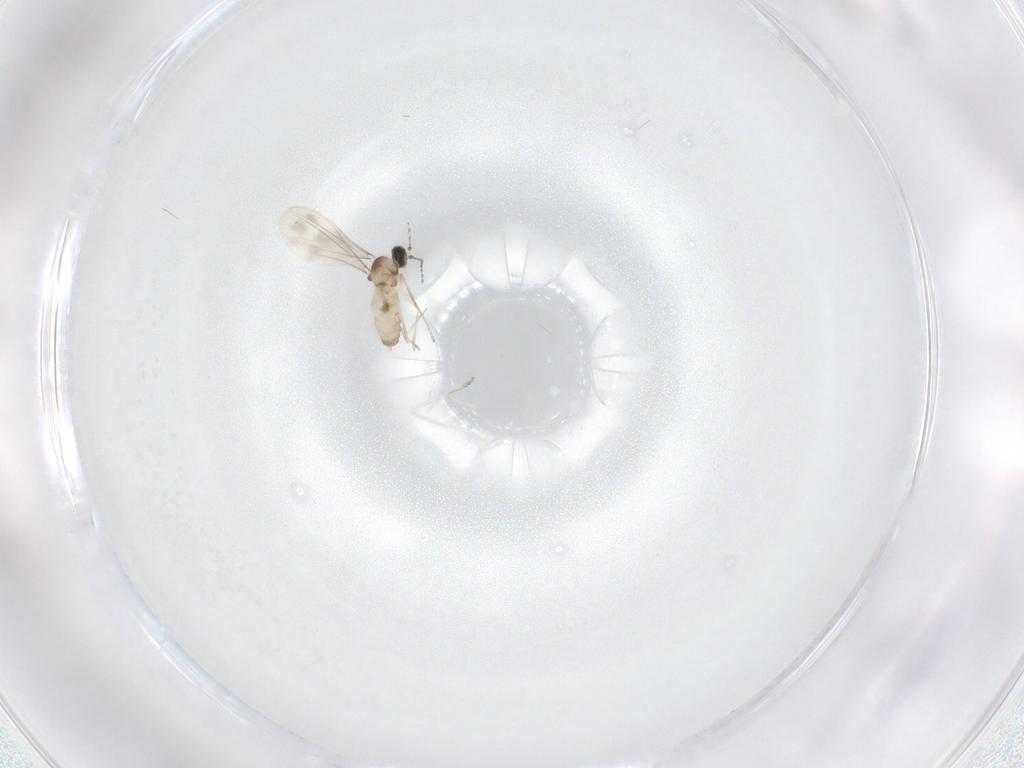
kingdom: Animalia
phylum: Arthropoda
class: Insecta
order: Diptera
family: Cecidomyiidae
